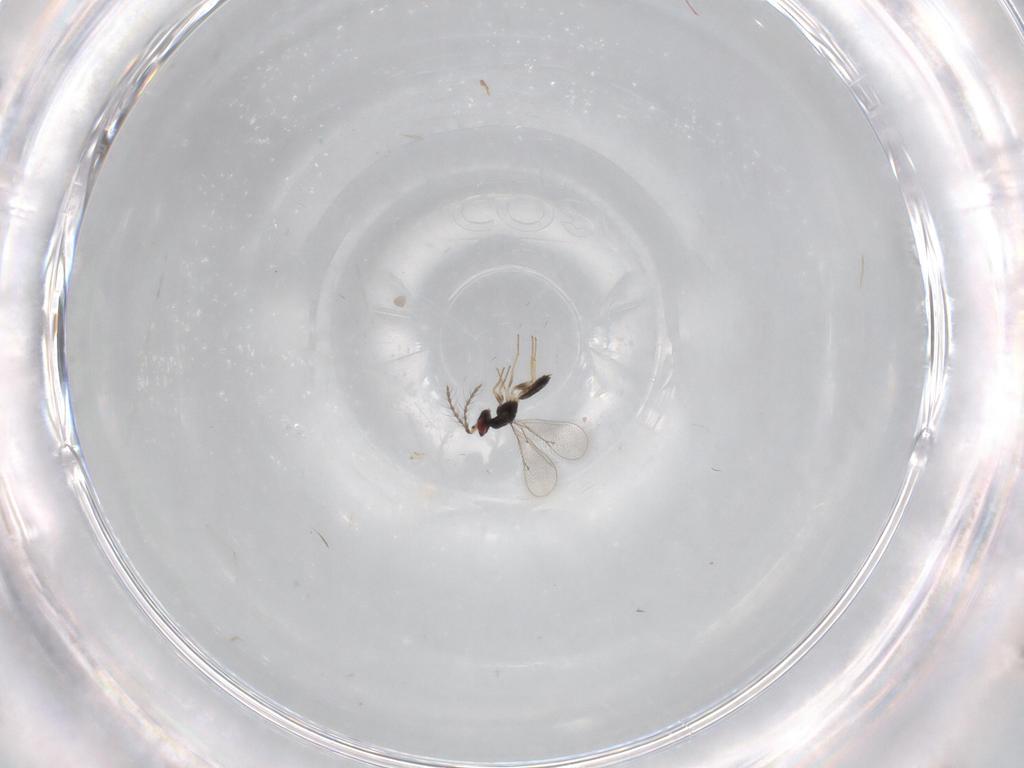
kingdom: Animalia
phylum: Arthropoda
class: Insecta
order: Hymenoptera
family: Eulophidae
